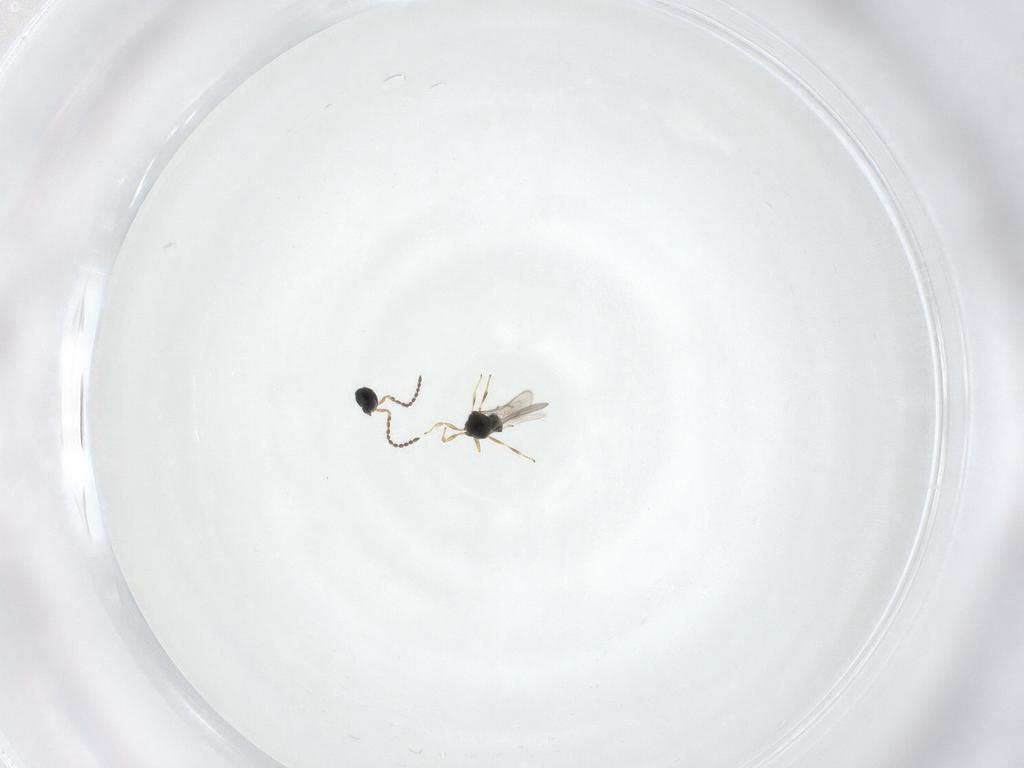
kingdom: Animalia
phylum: Arthropoda
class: Insecta
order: Hymenoptera
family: Scelionidae
